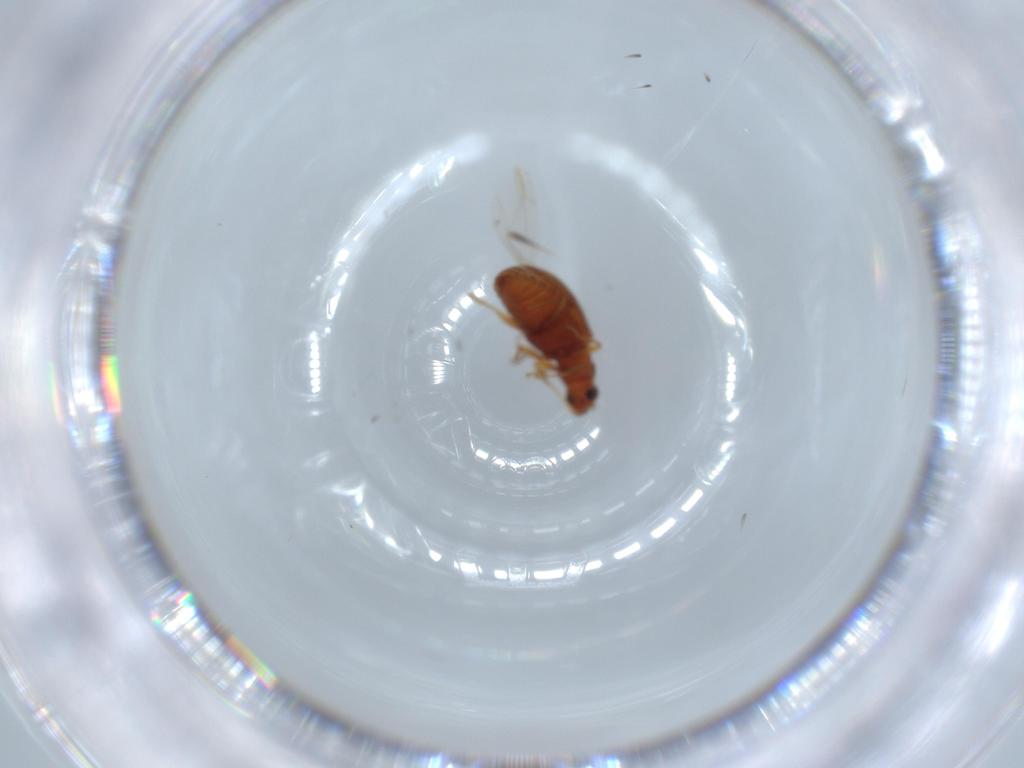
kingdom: Animalia
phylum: Arthropoda
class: Insecta
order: Coleoptera
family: Latridiidae
